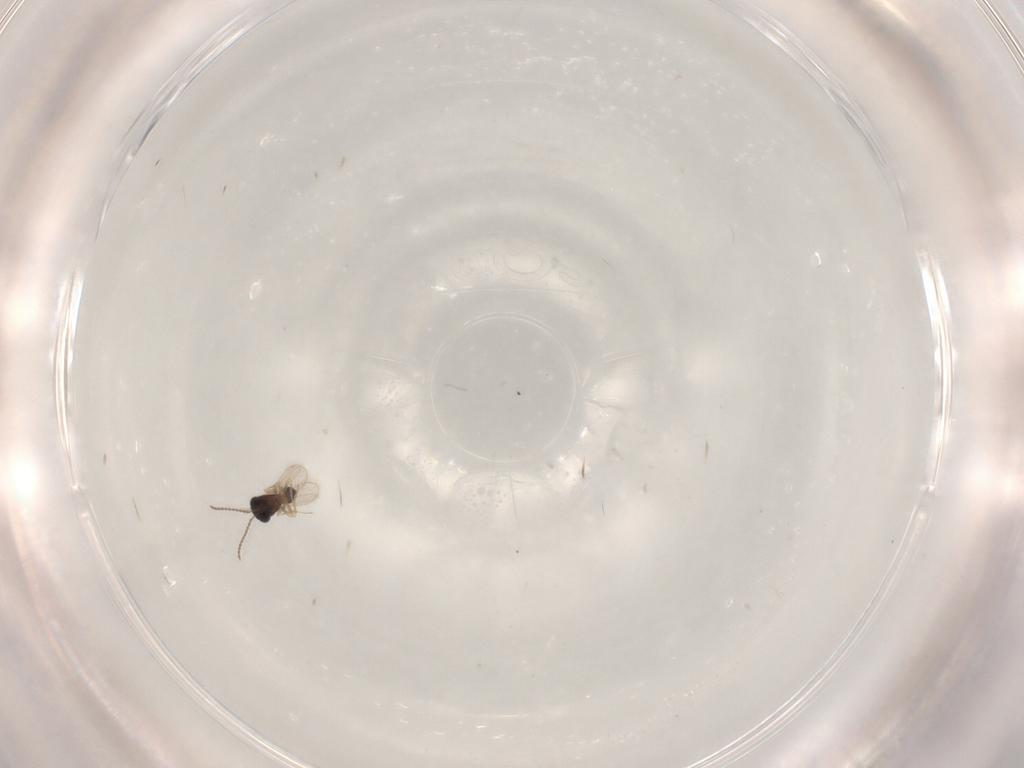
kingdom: Animalia
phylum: Arthropoda
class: Insecta
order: Hymenoptera
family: Scelionidae
